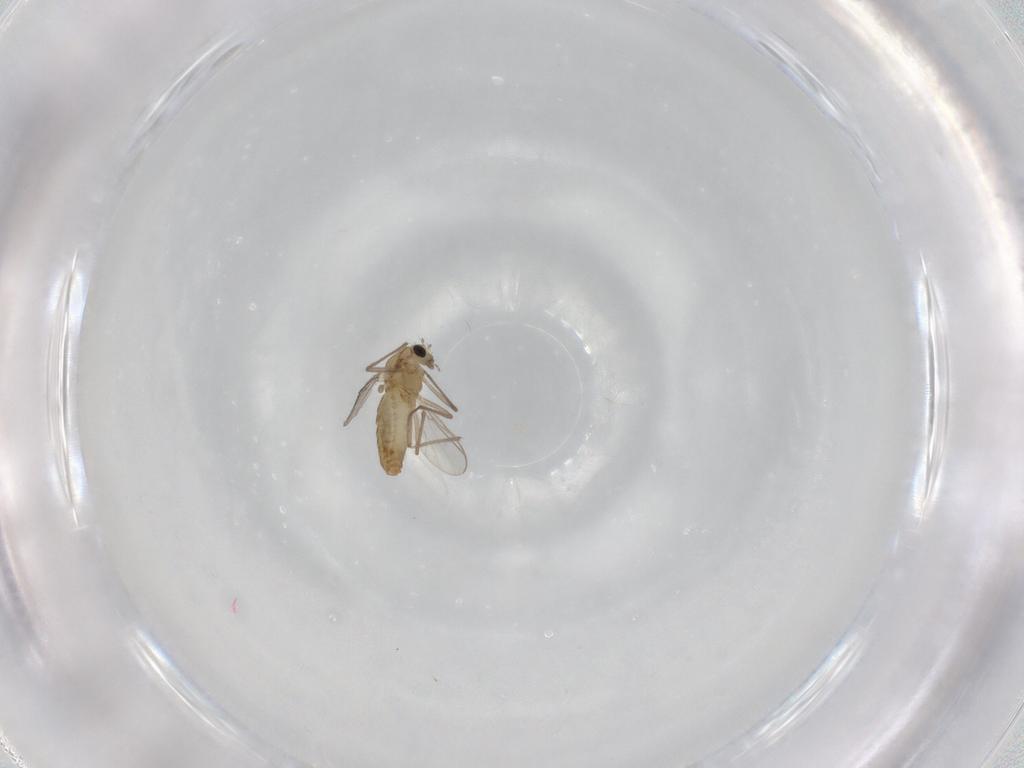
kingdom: Animalia
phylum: Arthropoda
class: Insecta
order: Diptera
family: Chironomidae
